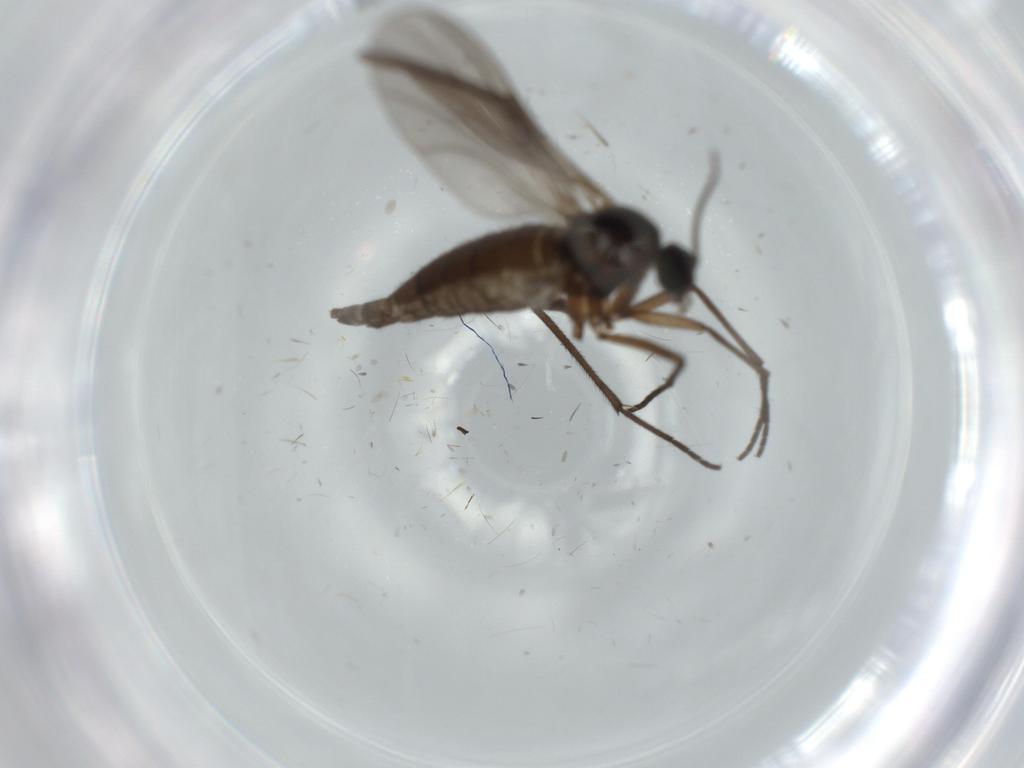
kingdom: Animalia
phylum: Arthropoda
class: Insecta
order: Diptera
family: Sciaridae
